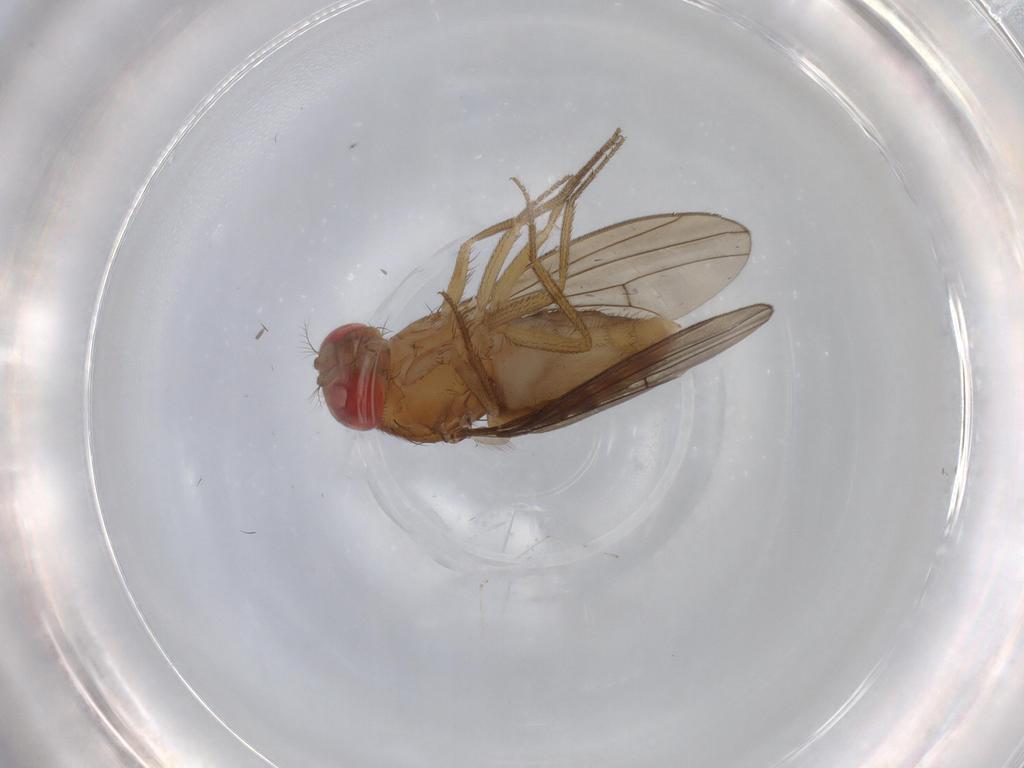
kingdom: Animalia
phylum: Arthropoda
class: Insecta
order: Diptera
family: Drosophilidae
